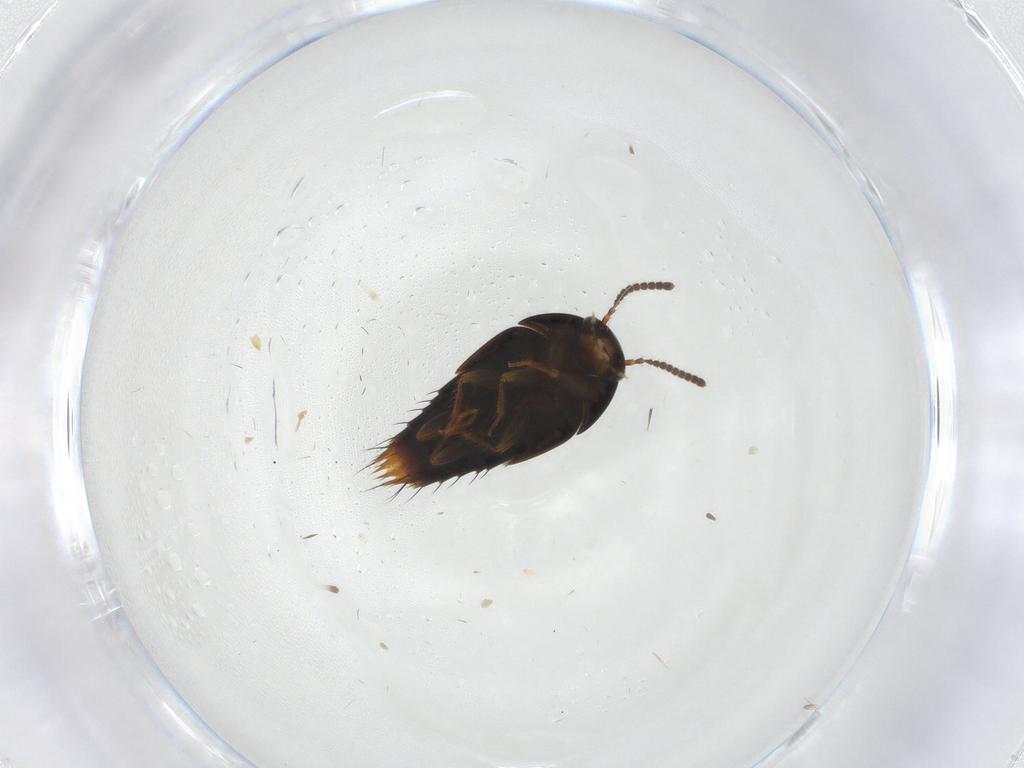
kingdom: Animalia
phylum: Arthropoda
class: Insecta
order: Coleoptera
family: Staphylinidae
